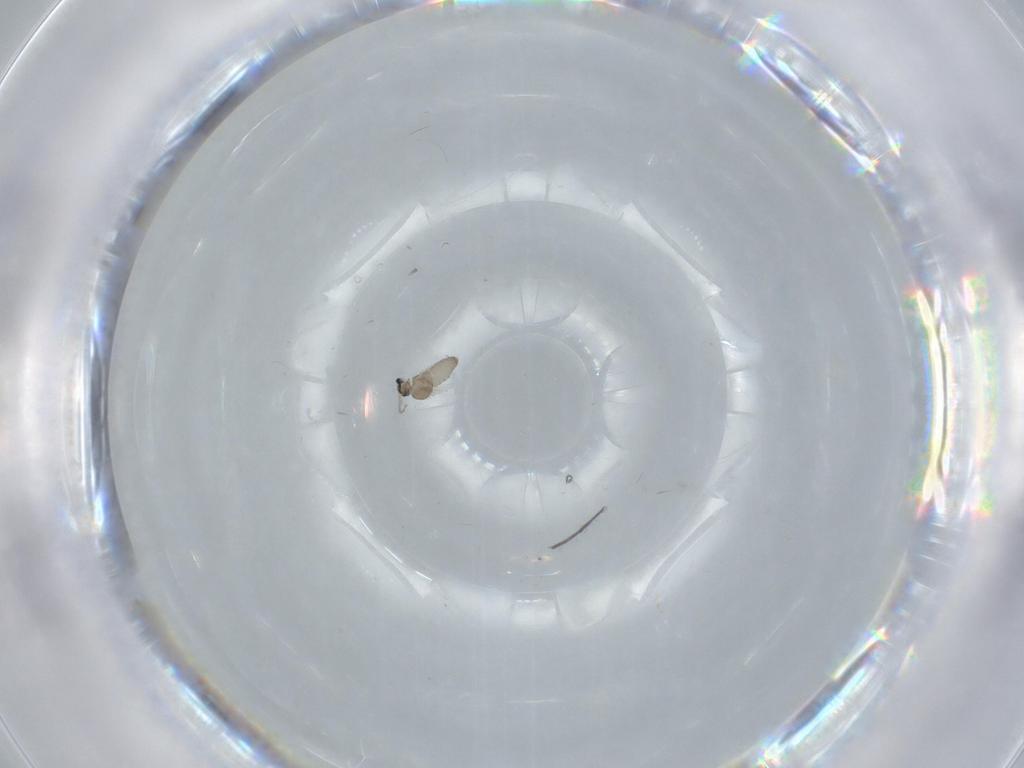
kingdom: Animalia
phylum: Arthropoda
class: Insecta
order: Diptera
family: Cecidomyiidae
